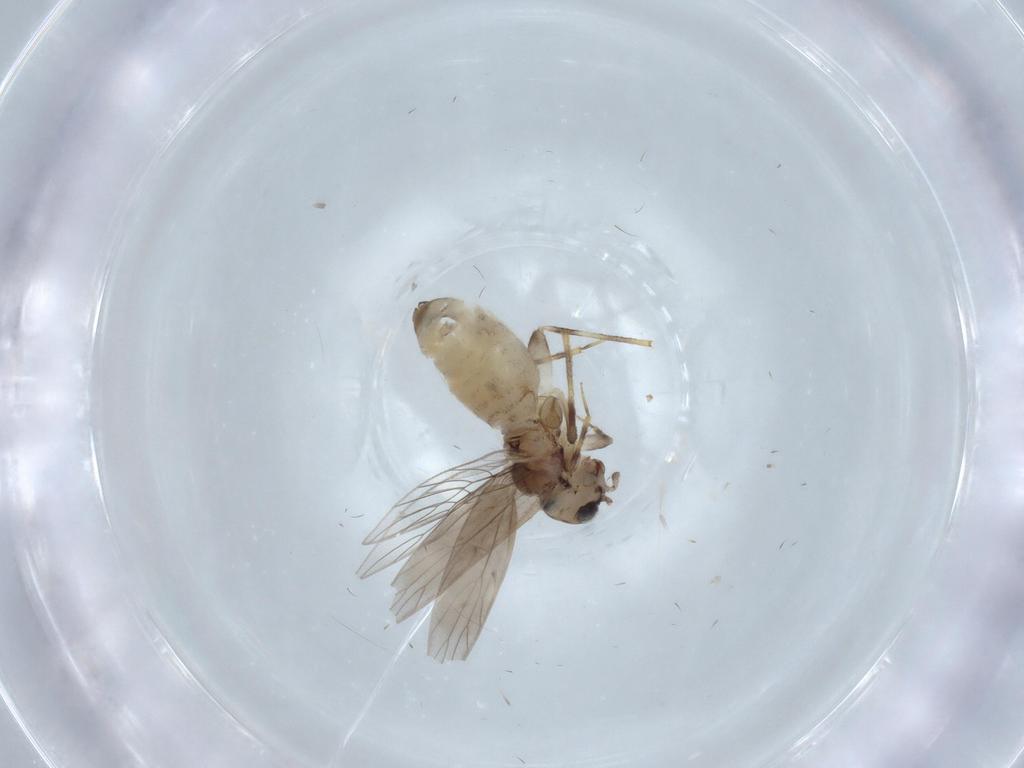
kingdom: Animalia
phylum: Arthropoda
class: Insecta
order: Psocodea
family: Lepidopsocidae
